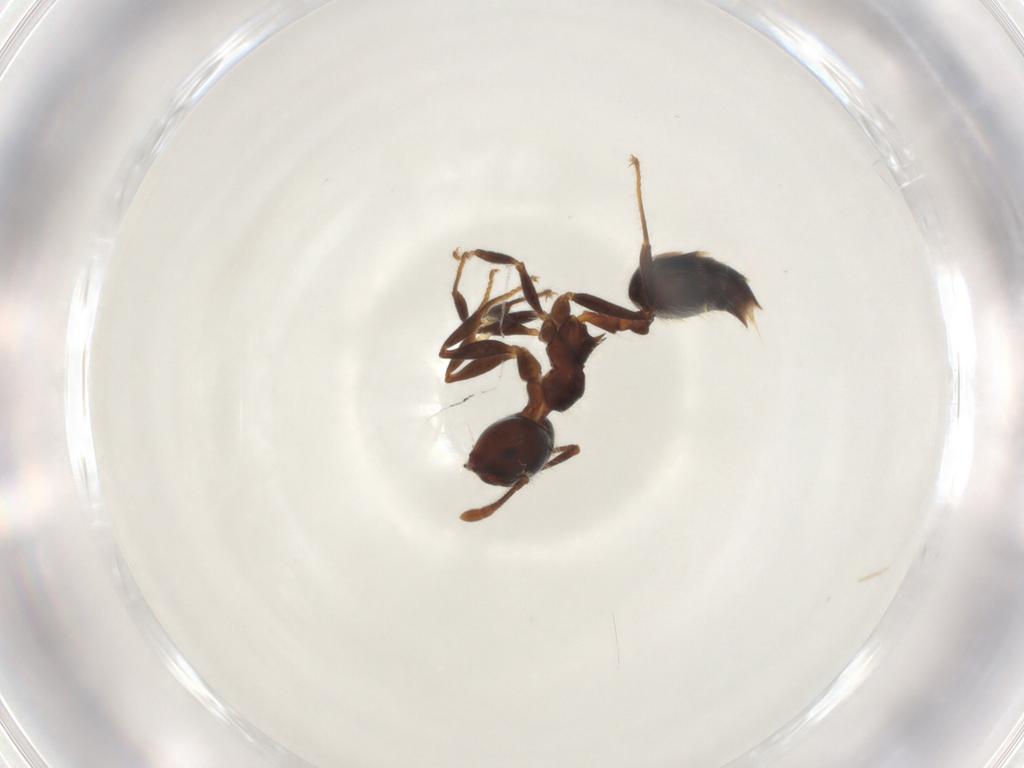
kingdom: Animalia
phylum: Arthropoda
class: Insecta
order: Hymenoptera
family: Formicidae
